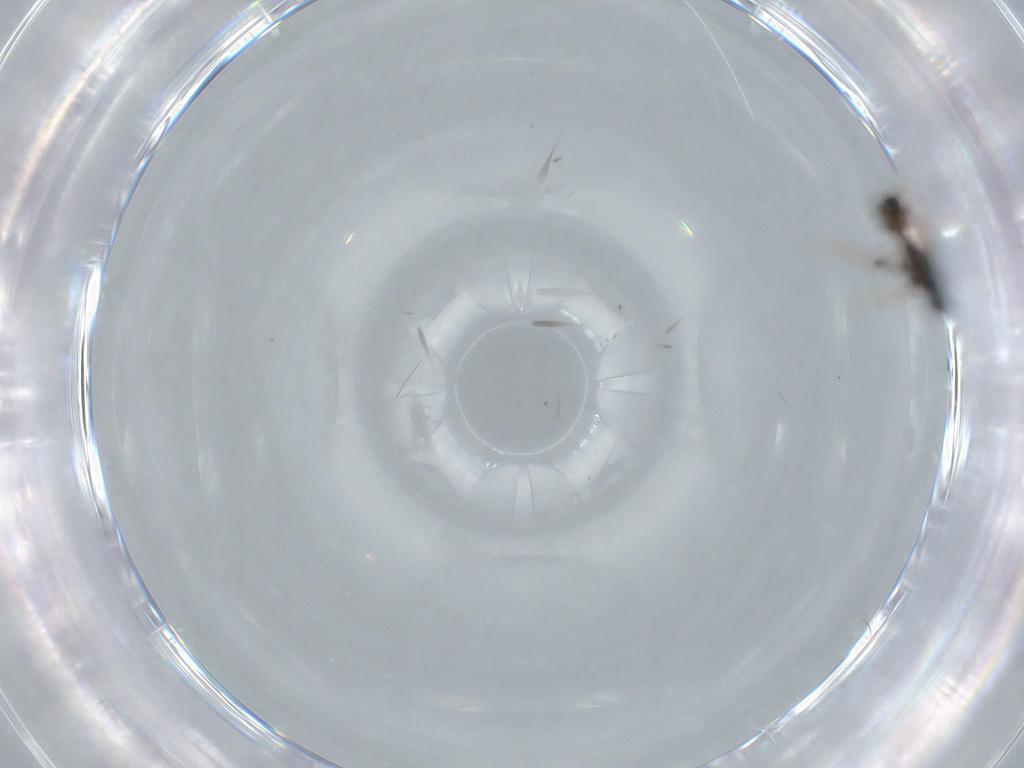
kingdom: Animalia
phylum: Arthropoda
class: Insecta
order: Hymenoptera
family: Platygastridae
